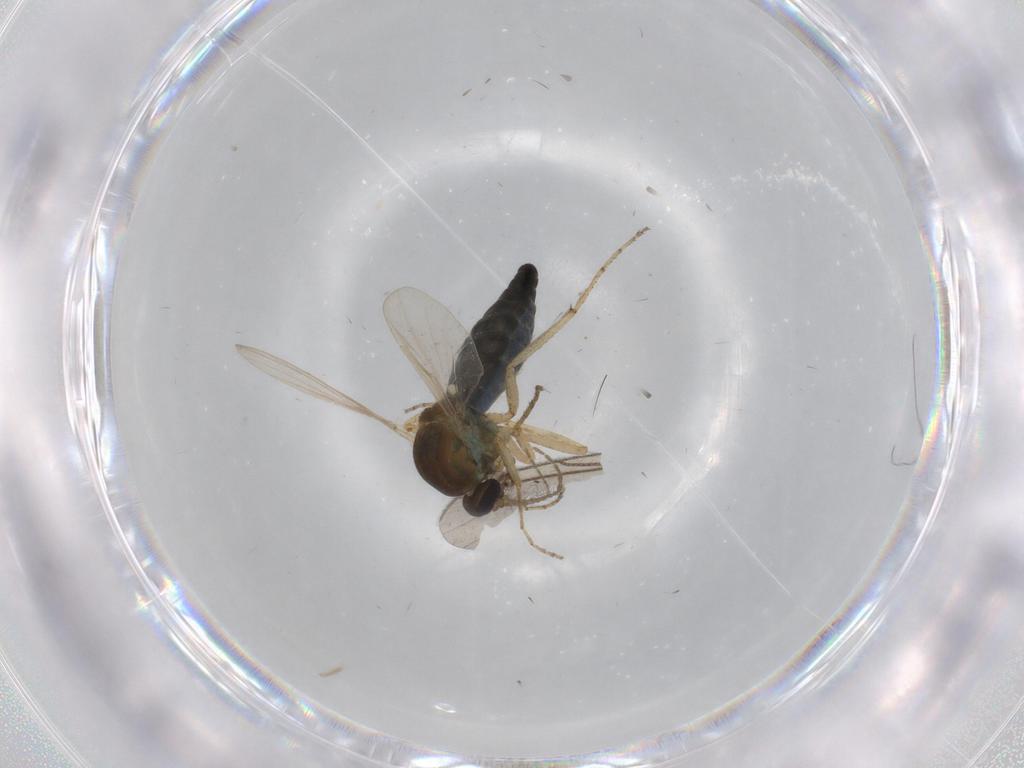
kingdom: Animalia
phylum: Arthropoda
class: Insecta
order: Diptera
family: Ceratopogonidae
